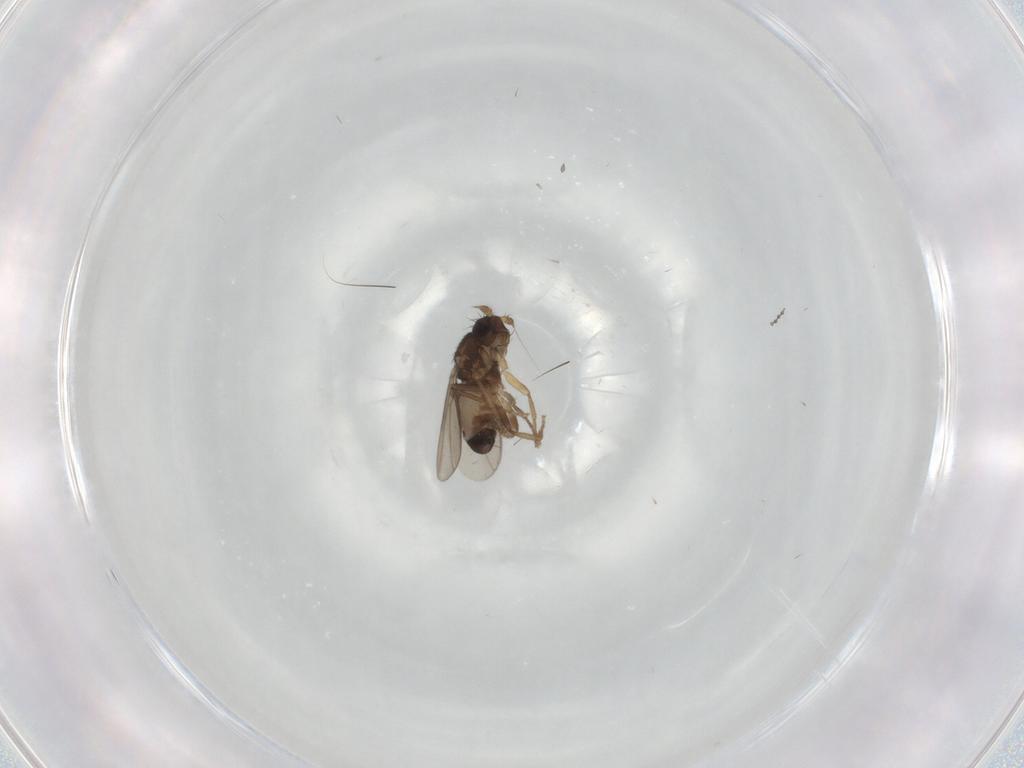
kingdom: Animalia
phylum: Arthropoda
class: Insecta
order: Diptera
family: Sphaeroceridae
